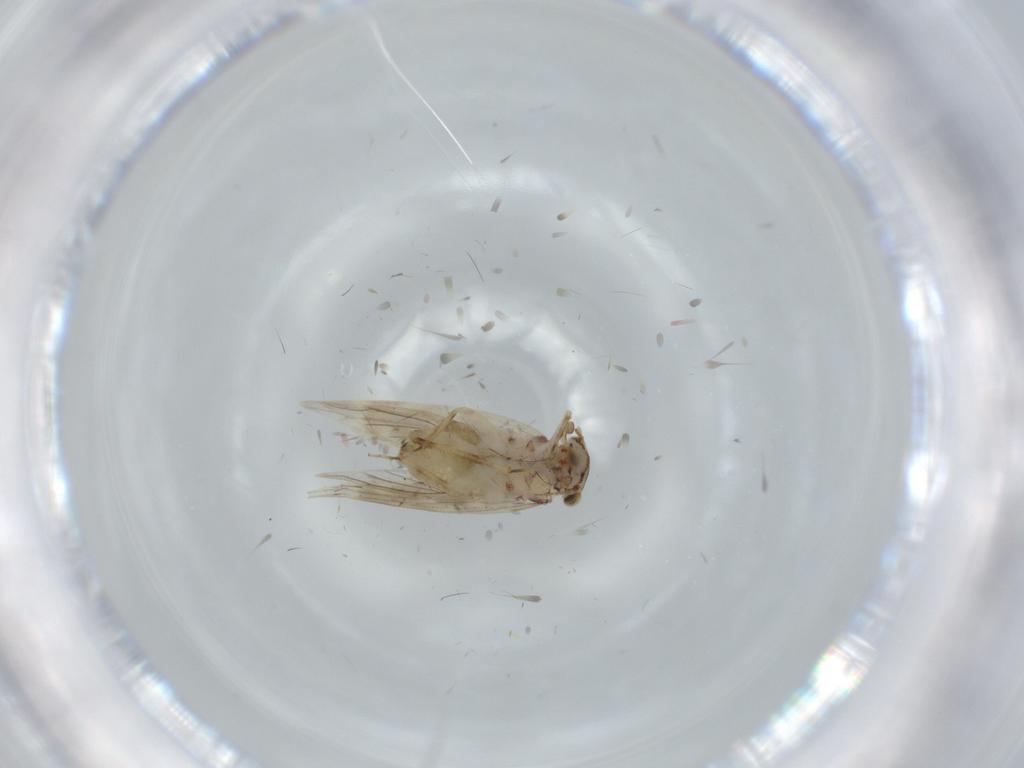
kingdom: Animalia
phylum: Arthropoda
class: Insecta
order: Psocodea
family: Lepidopsocidae
